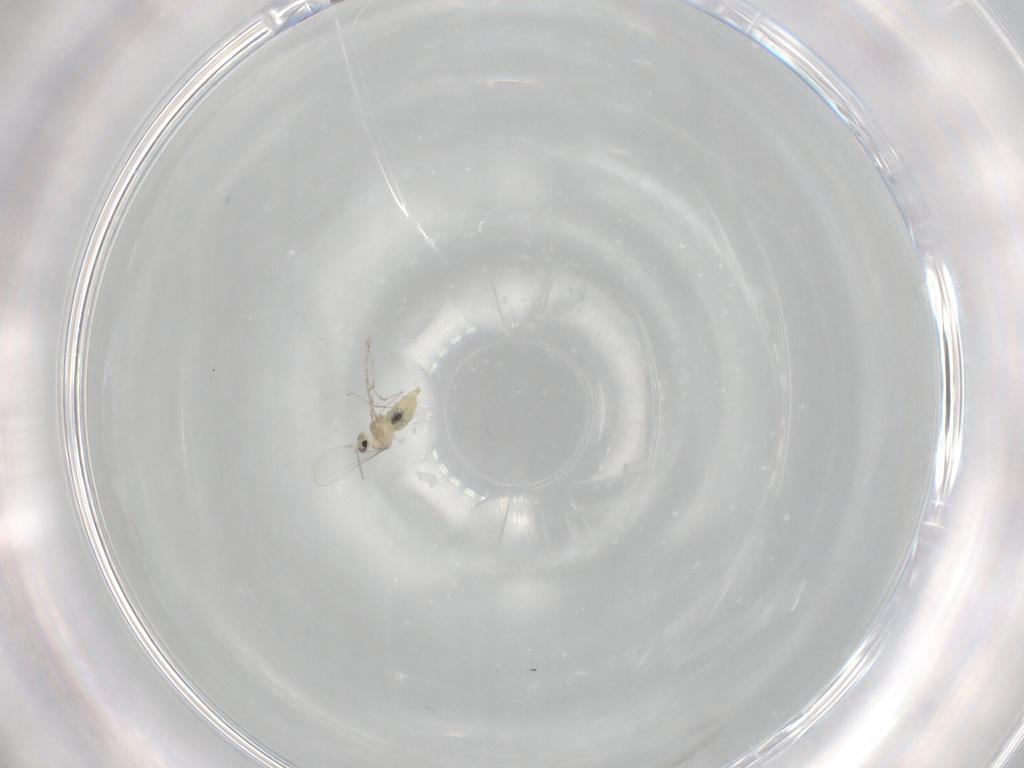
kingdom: Animalia
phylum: Arthropoda
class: Insecta
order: Diptera
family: Cecidomyiidae
